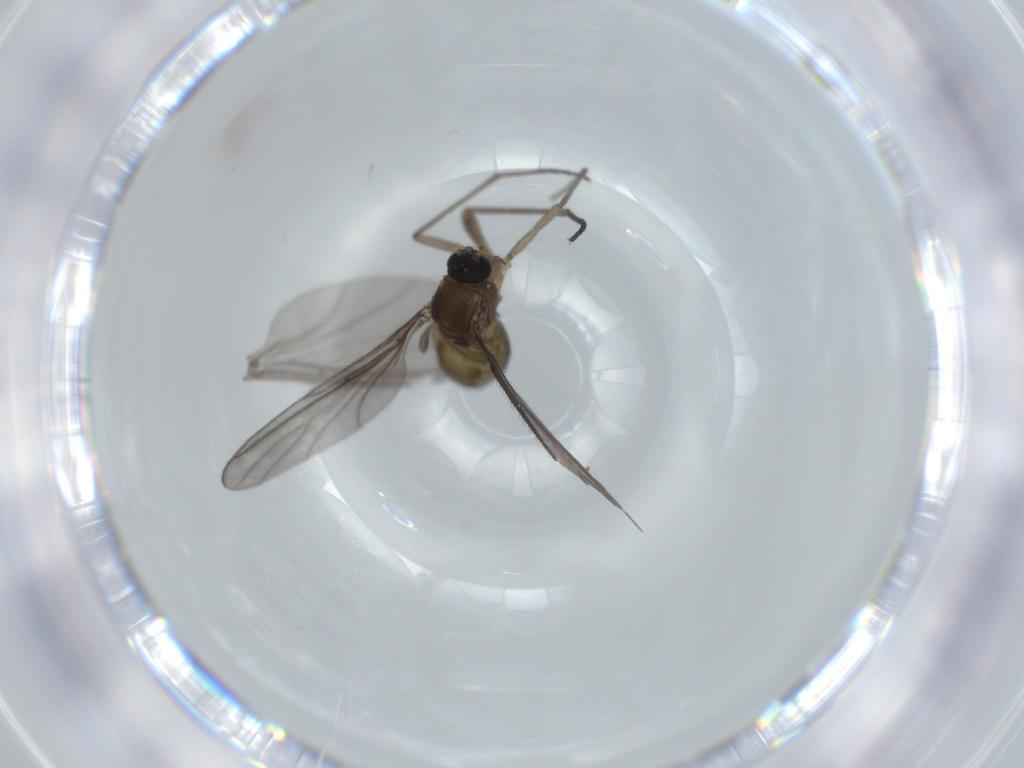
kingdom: Animalia
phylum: Arthropoda
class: Insecta
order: Diptera
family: Sciaridae
